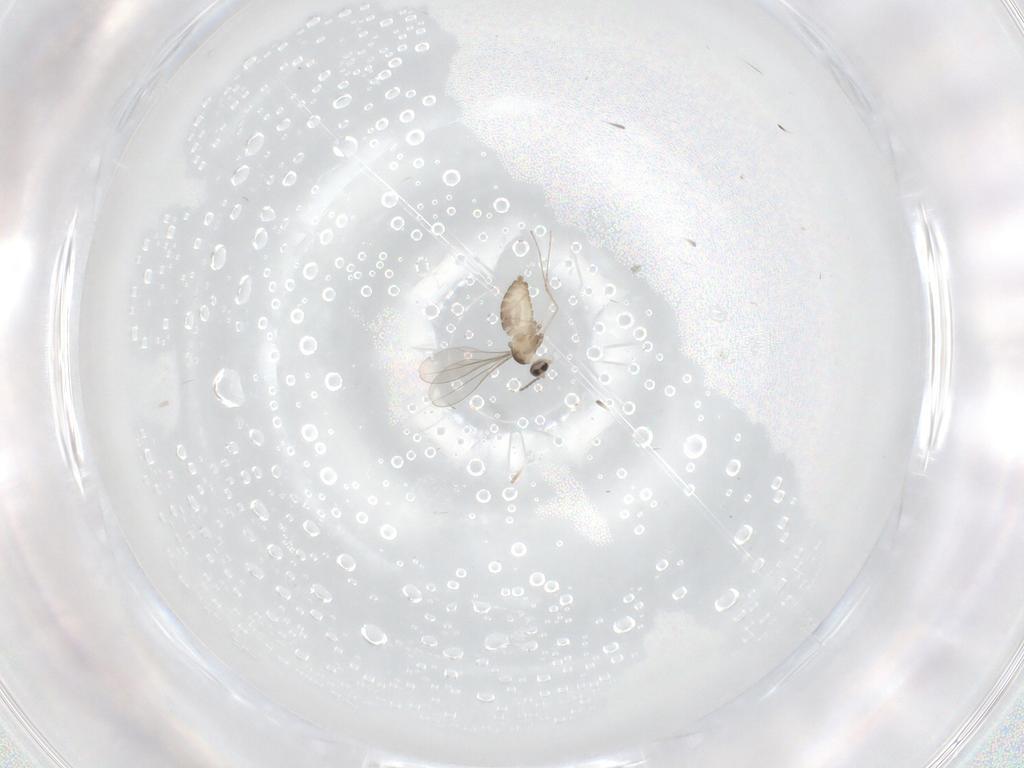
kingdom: Animalia
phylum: Arthropoda
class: Insecta
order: Diptera
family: Cecidomyiidae
